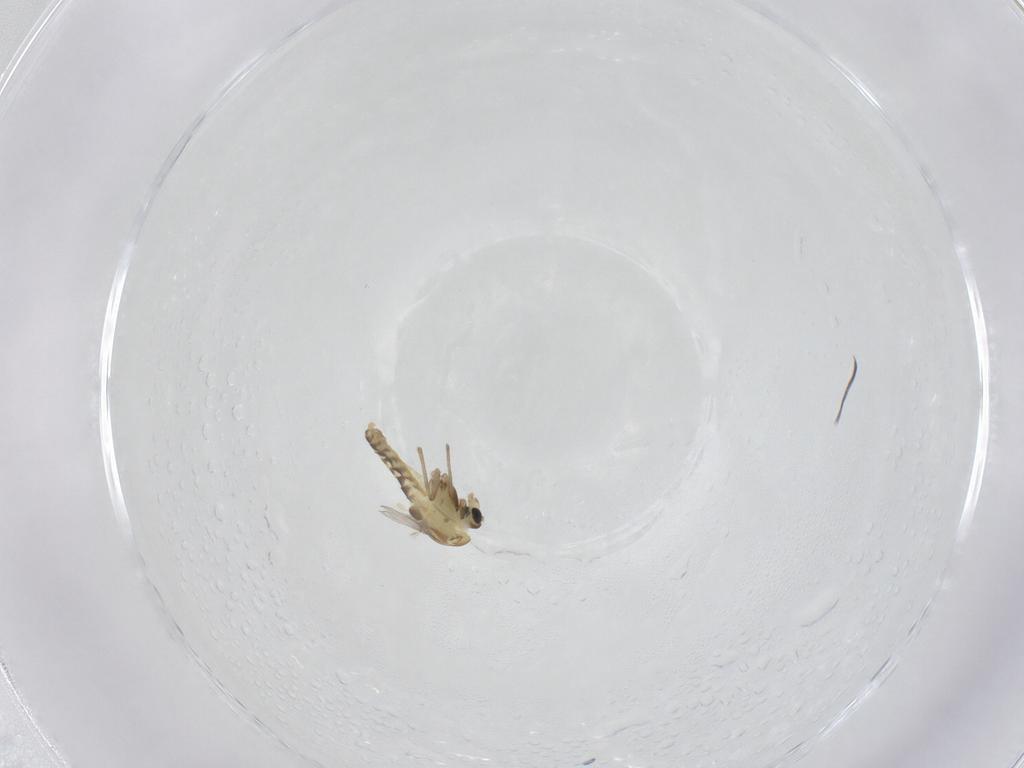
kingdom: Animalia
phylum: Arthropoda
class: Insecta
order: Diptera
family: Chironomidae
